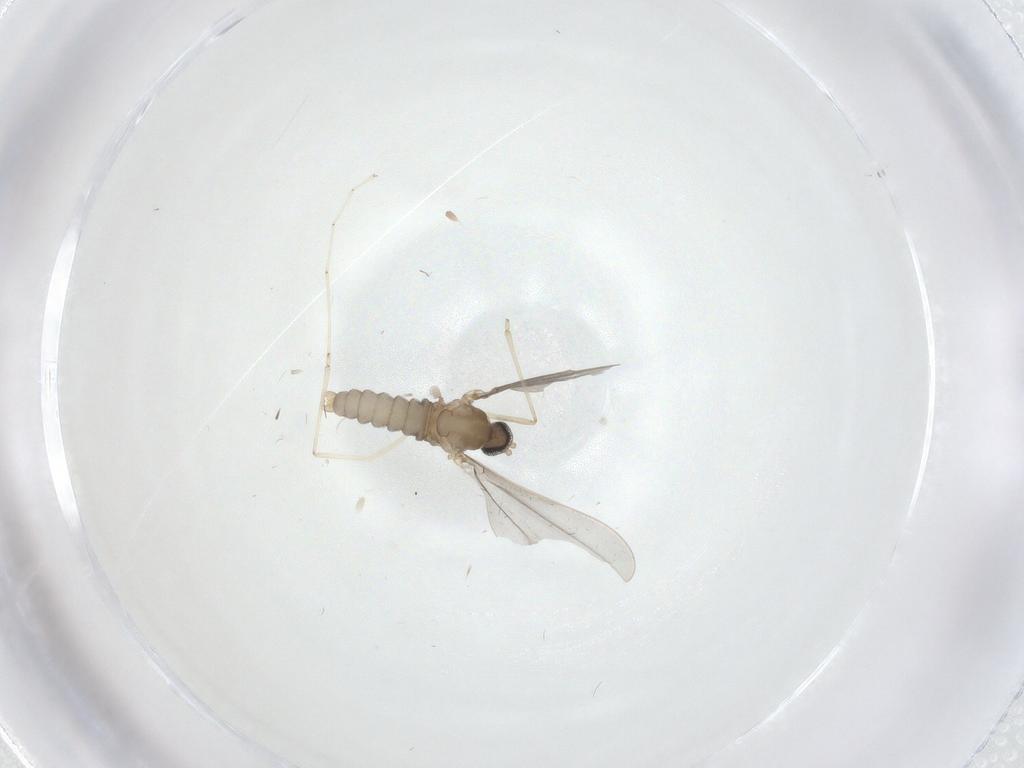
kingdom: Animalia
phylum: Arthropoda
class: Insecta
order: Diptera
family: Cecidomyiidae
